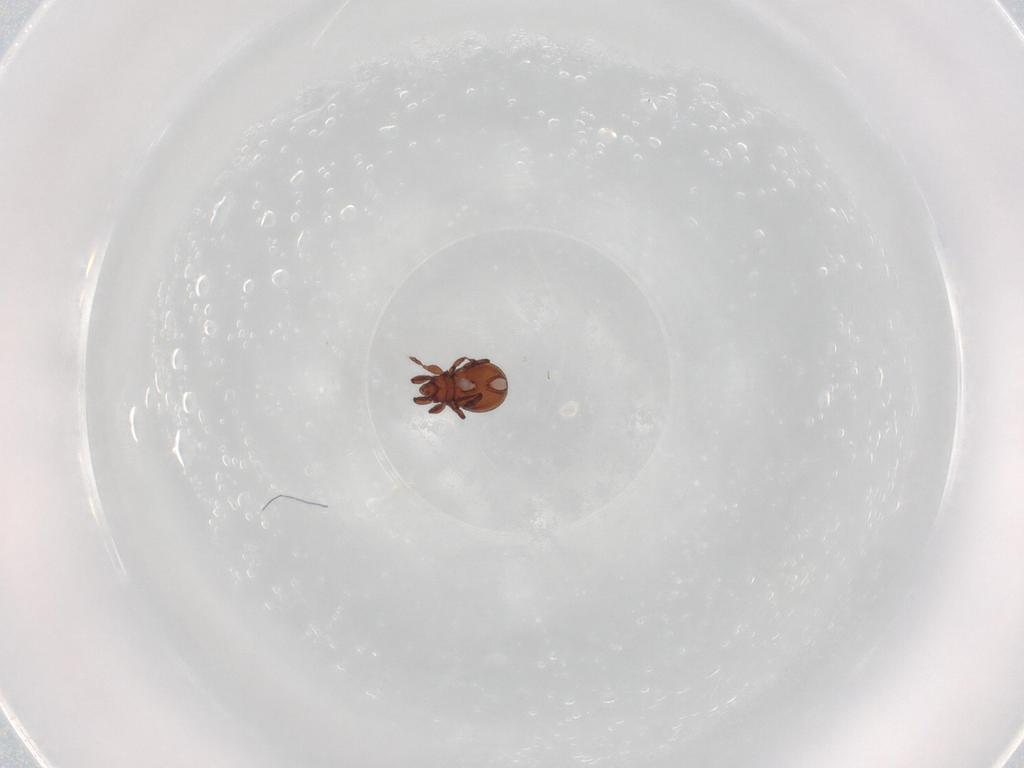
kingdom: Animalia
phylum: Arthropoda
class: Arachnida
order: Sarcoptiformes
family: Eremaeidae
